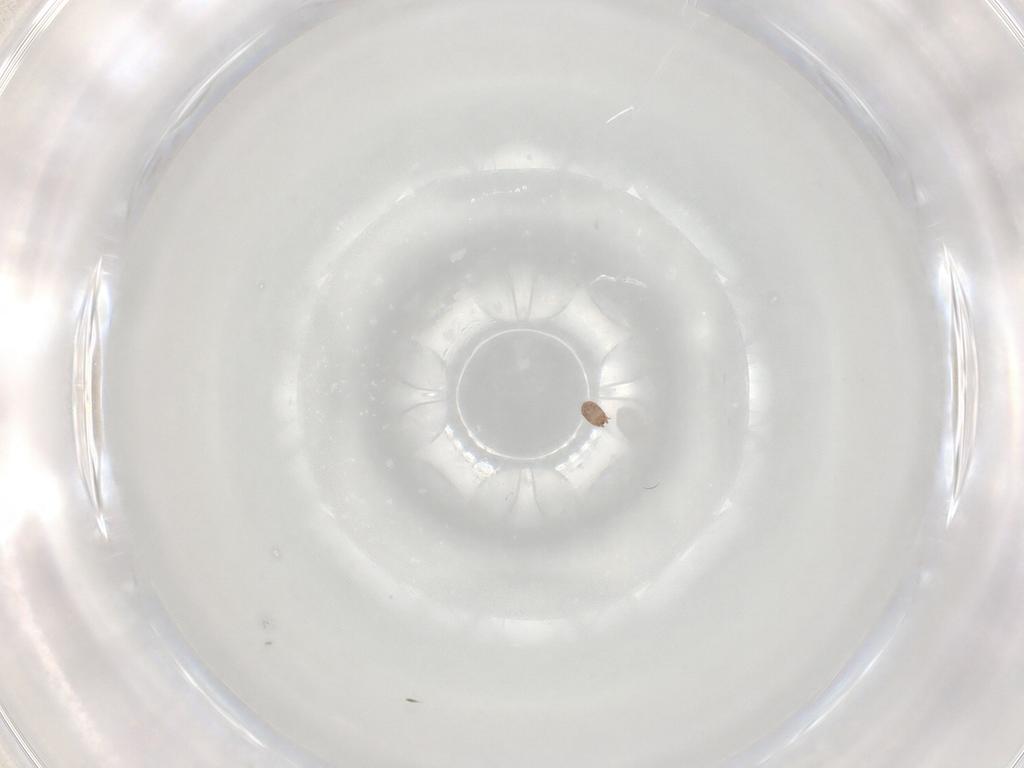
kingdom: Animalia
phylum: Arthropoda
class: Arachnida
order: Sarcoptiformes
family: Hemisarcoptidae
